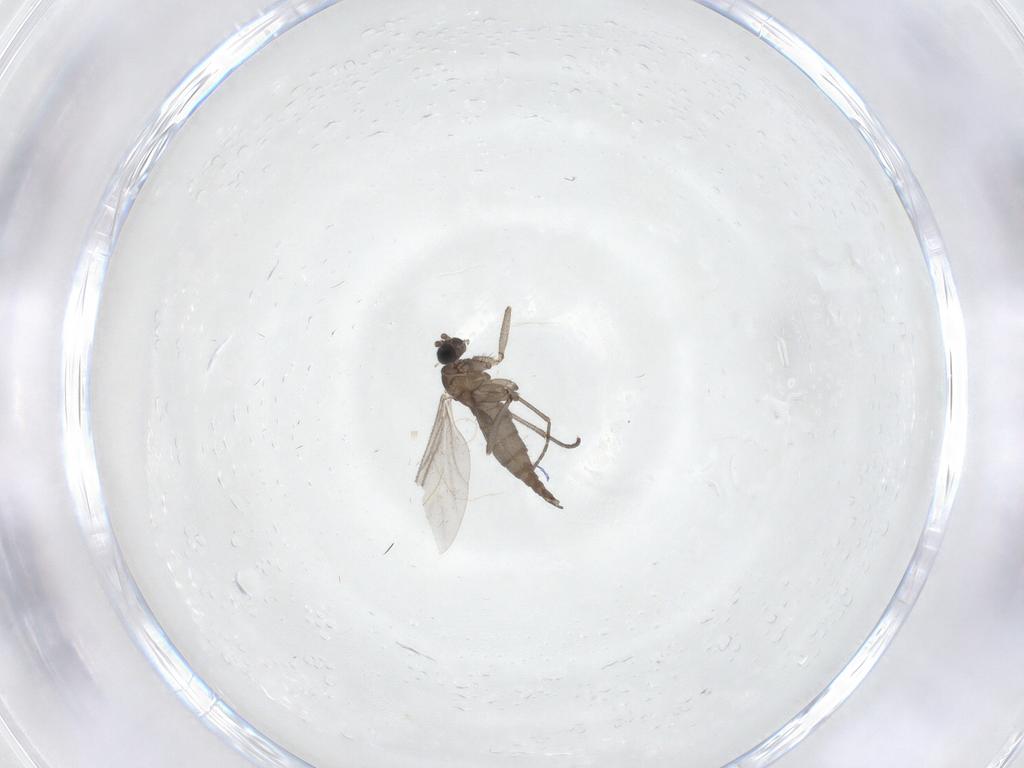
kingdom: Animalia
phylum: Arthropoda
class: Insecta
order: Diptera
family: Sciaridae
